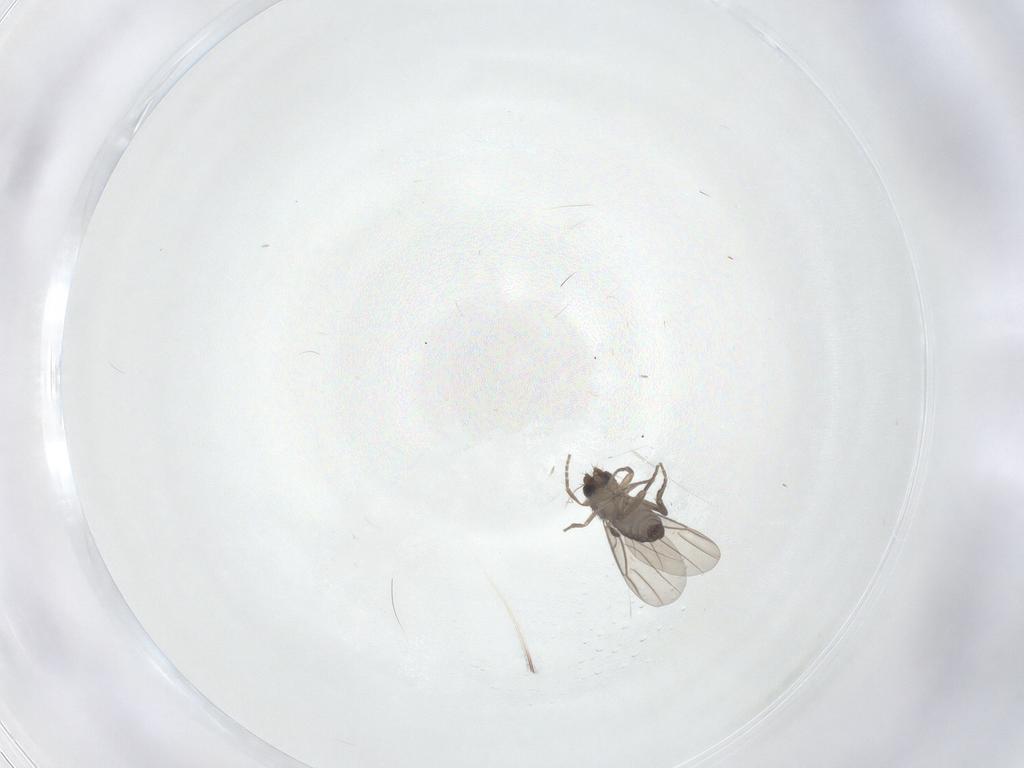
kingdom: Animalia
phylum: Arthropoda
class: Insecta
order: Diptera
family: Phoridae
